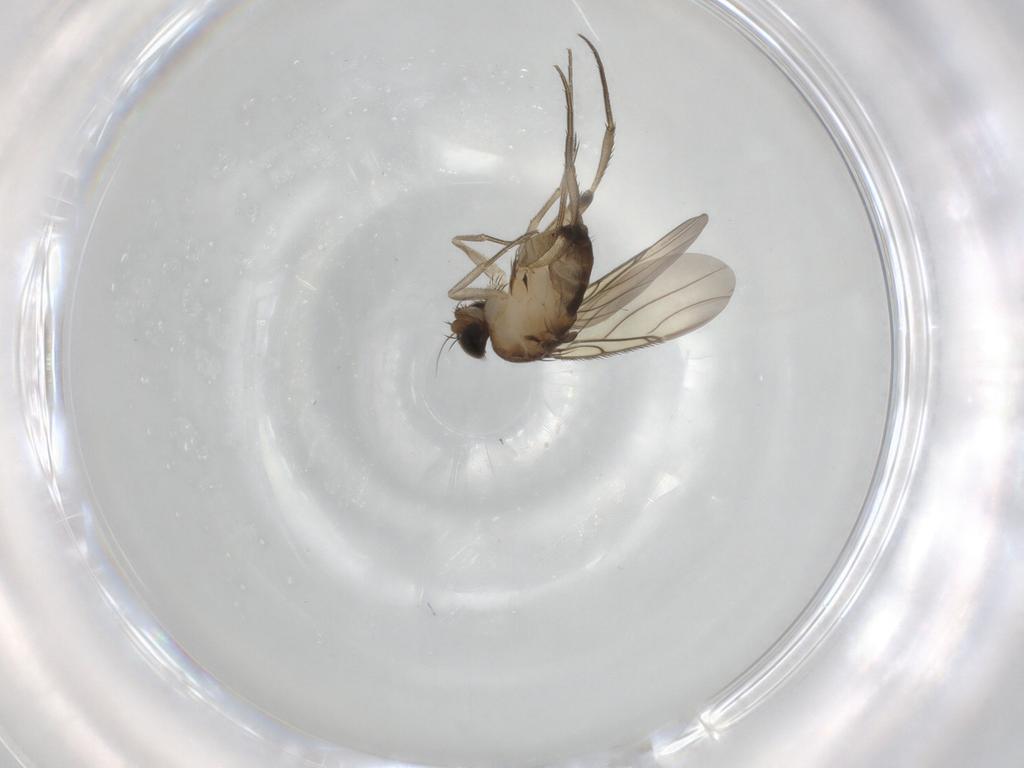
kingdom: Animalia
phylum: Arthropoda
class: Insecta
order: Diptera
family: Phoridae
